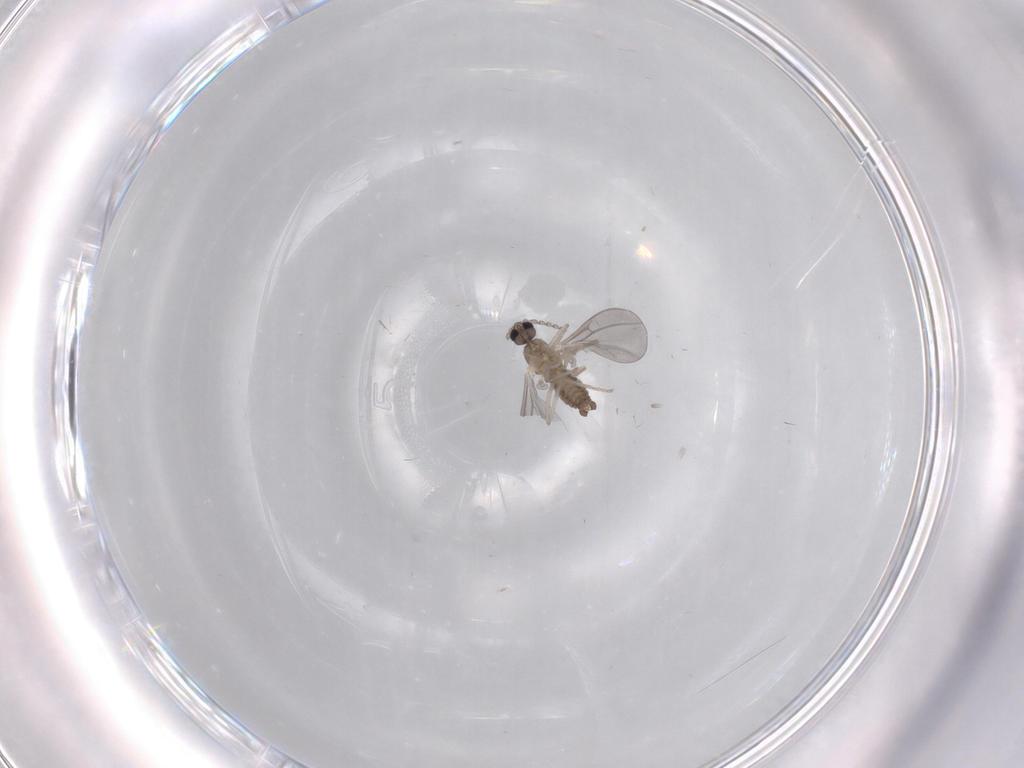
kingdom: Animalia
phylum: Arthropoda
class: Insecta
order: Diptera
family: Cecidomyiidae
